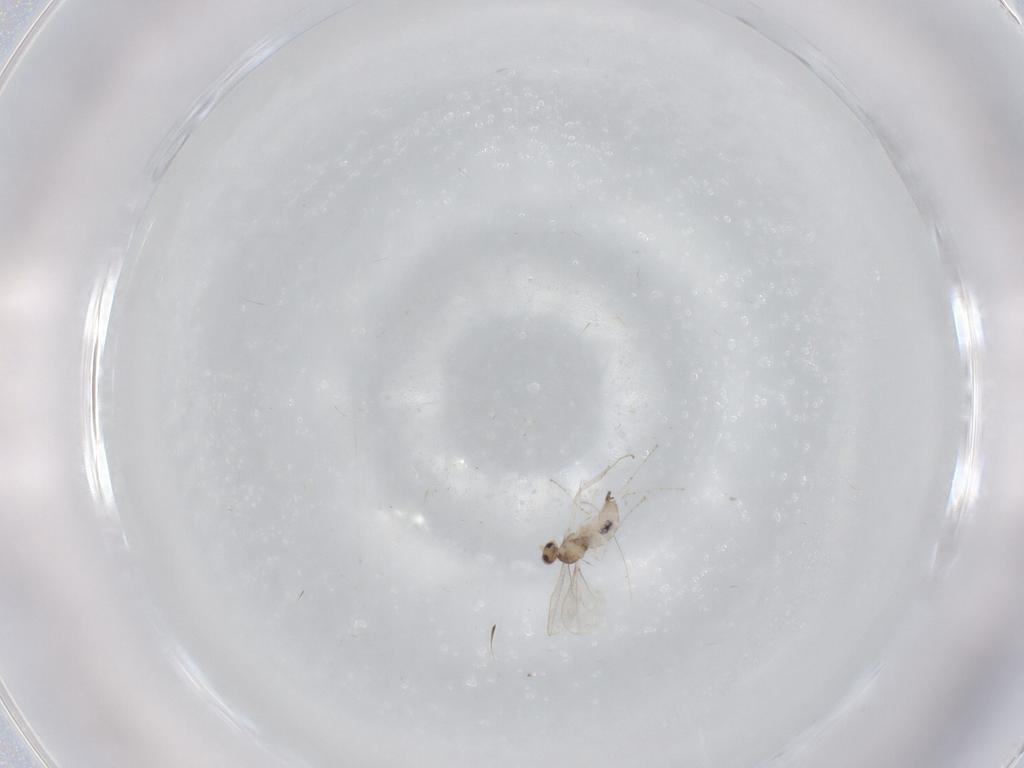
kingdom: Animalia
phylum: Arthropoda
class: Insecta
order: Diptera
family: Cecidomyiidae
